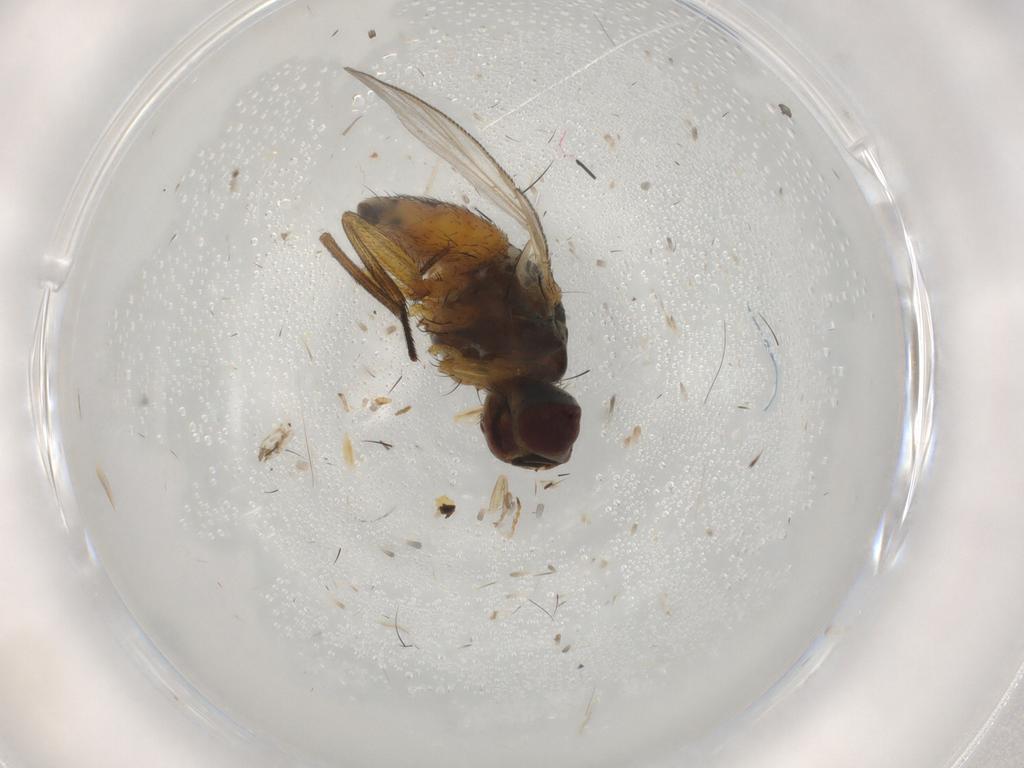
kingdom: Animalia
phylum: Arthropoda
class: Insecta
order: Diptera
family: Muscidae
